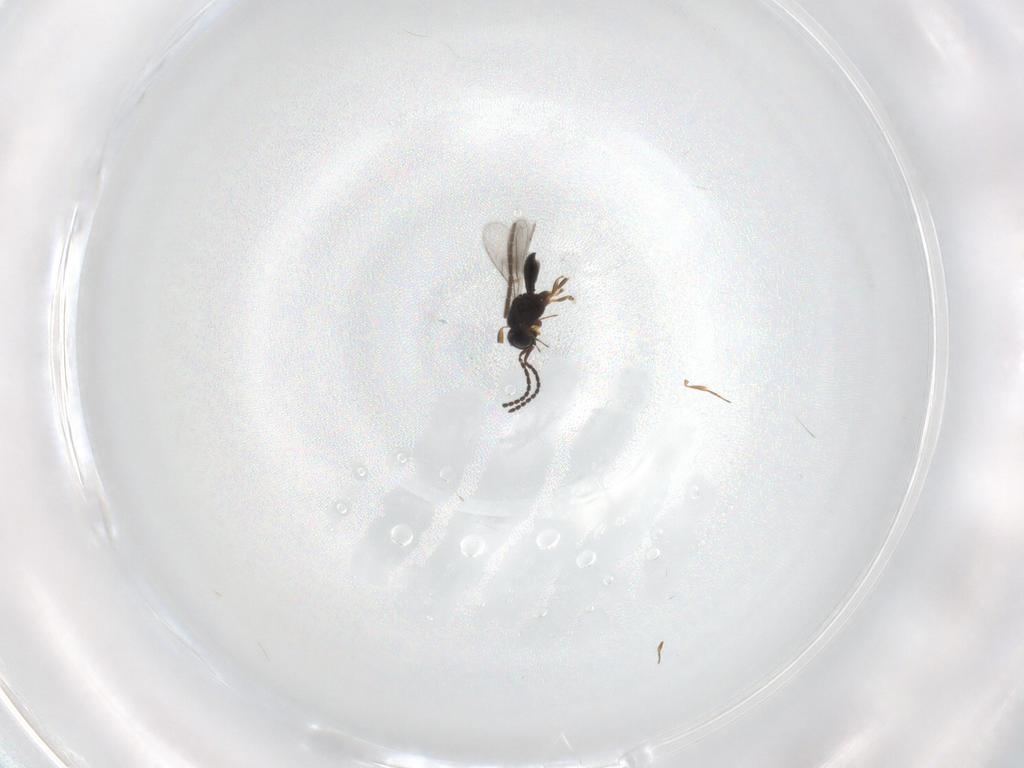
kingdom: Animalia
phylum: Arthropoda
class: Insecta
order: Hymenoptera
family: Scelionidae
